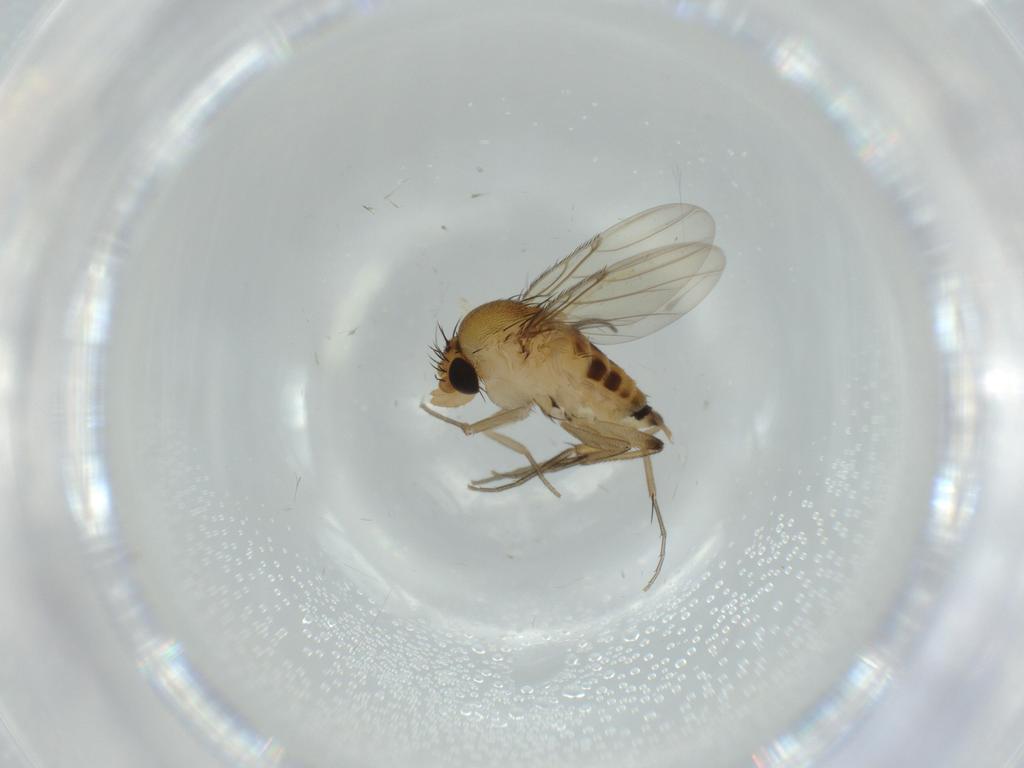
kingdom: Animalia
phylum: Arthropoda
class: Insecta
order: Diptera
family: Phoridae
